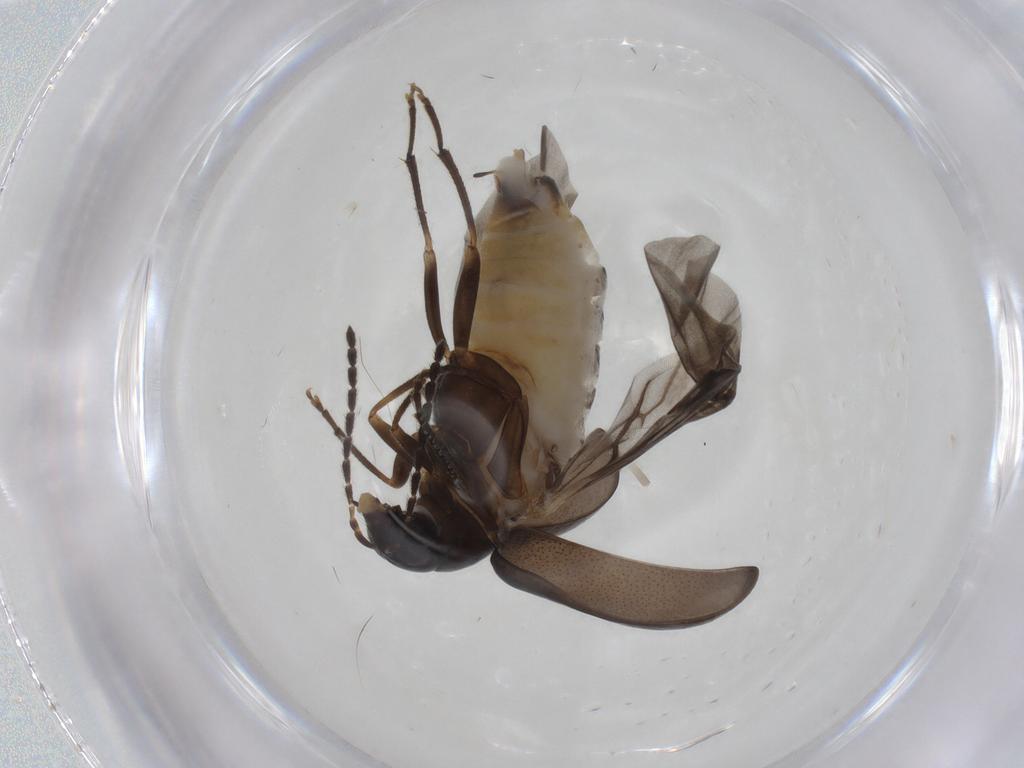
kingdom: Animalia
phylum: Arthropoda
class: Insecta
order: Coleoptera
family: Chrysomelidae
